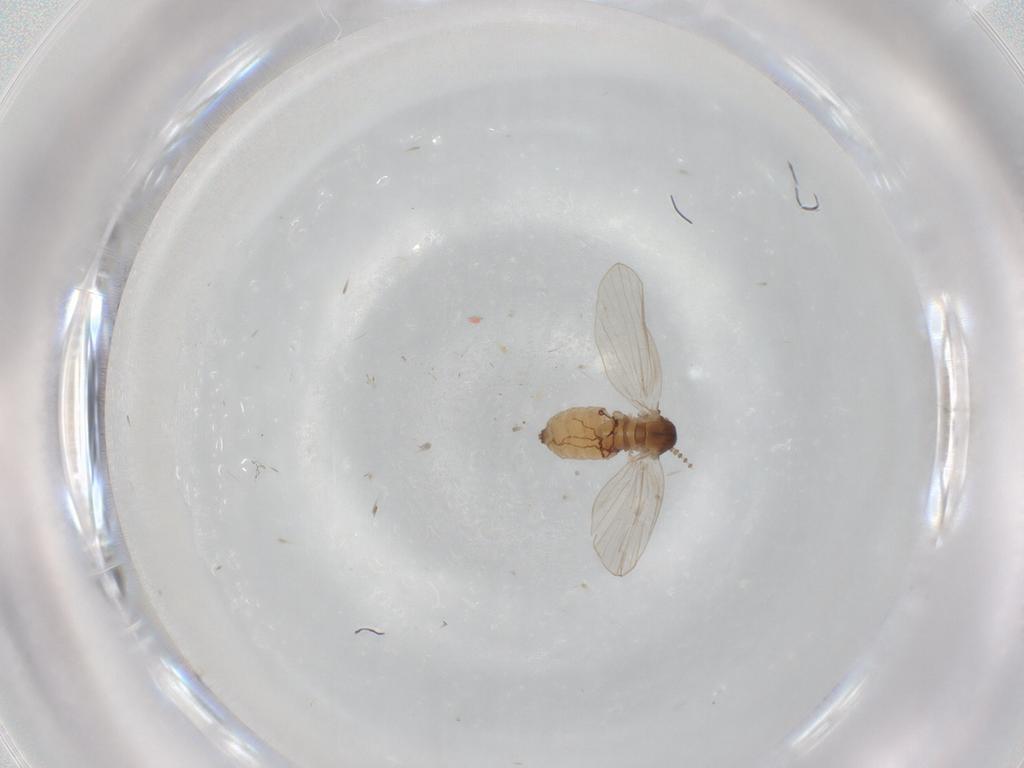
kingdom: Animalia
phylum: Arthropoda
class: Insecta
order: Diptera
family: Psychodidae
